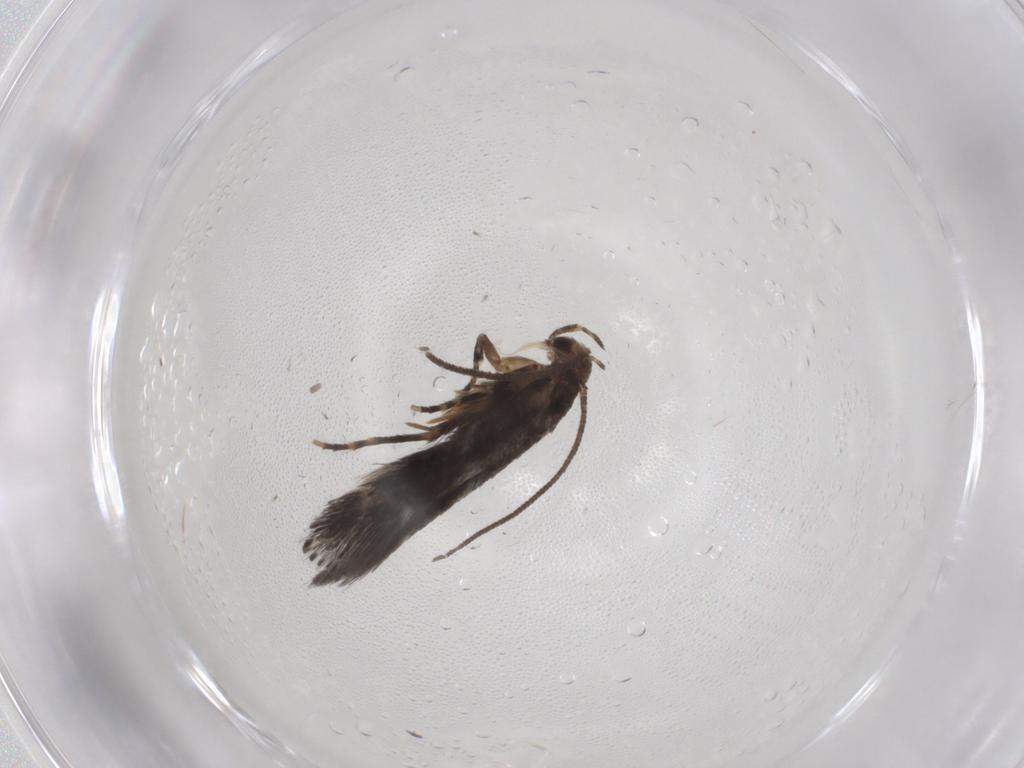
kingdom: Animalia
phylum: Arthropoda
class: Insecta
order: Lepidoptera
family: Elachistidae
